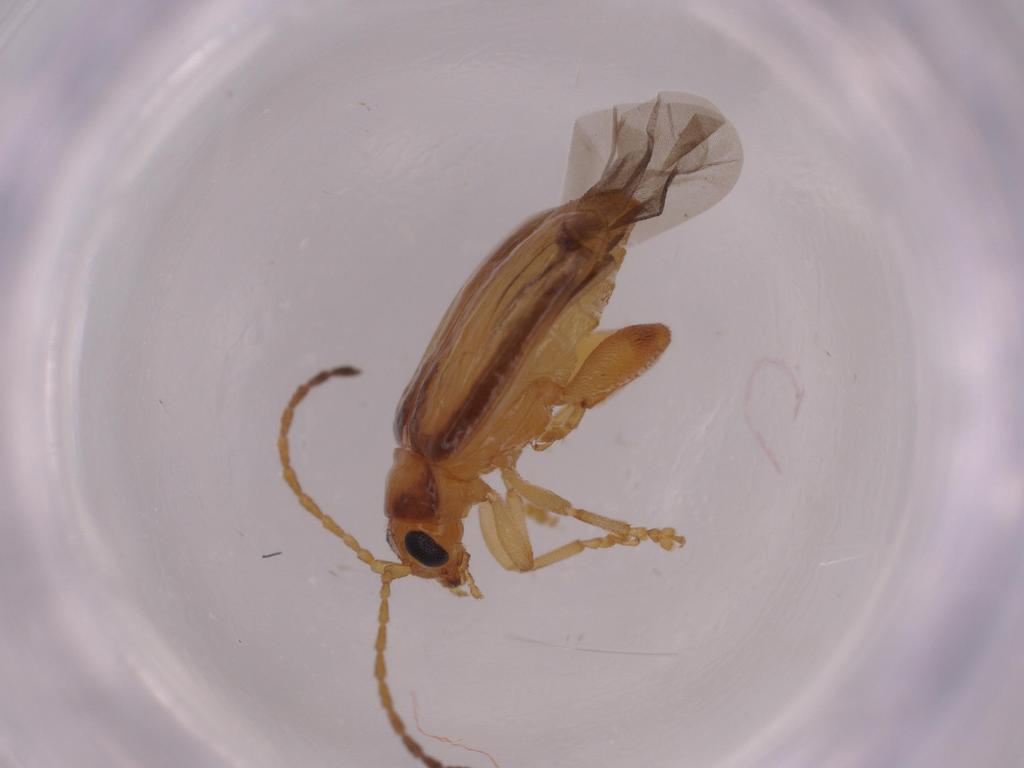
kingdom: Animalia
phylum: Arthropoda
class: Insecta
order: Coleoptera
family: Chrysomelidae
